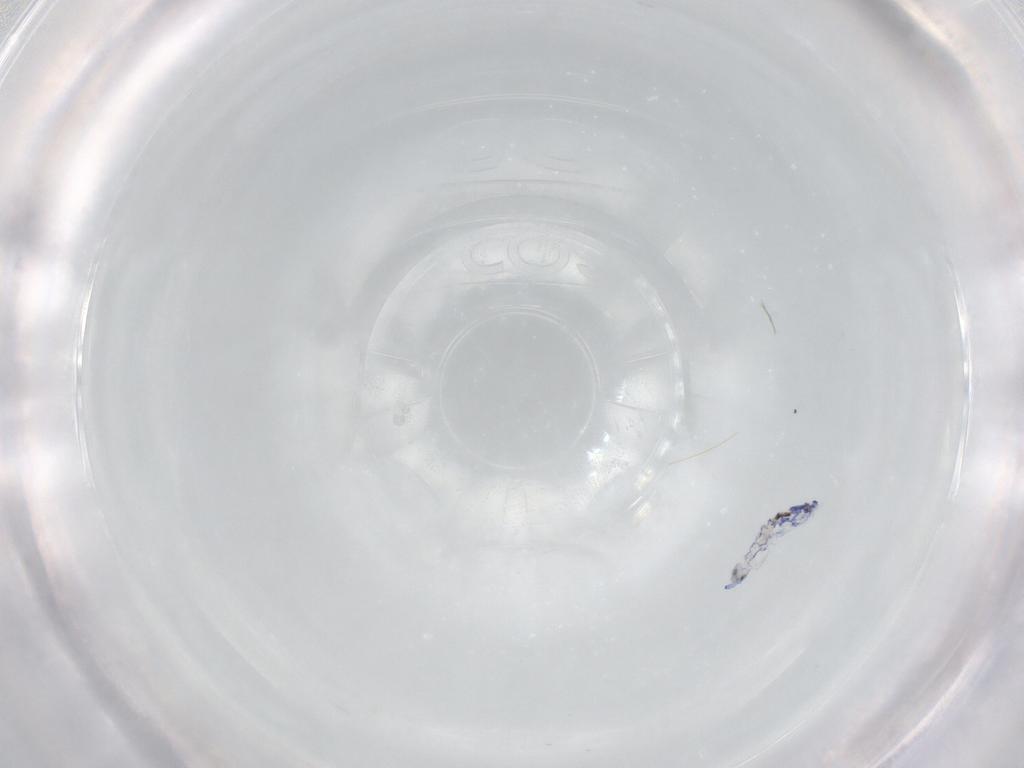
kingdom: Animalia
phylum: Arthropoda
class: Collembola
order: Entomobryomorpha
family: Entomobryidae
